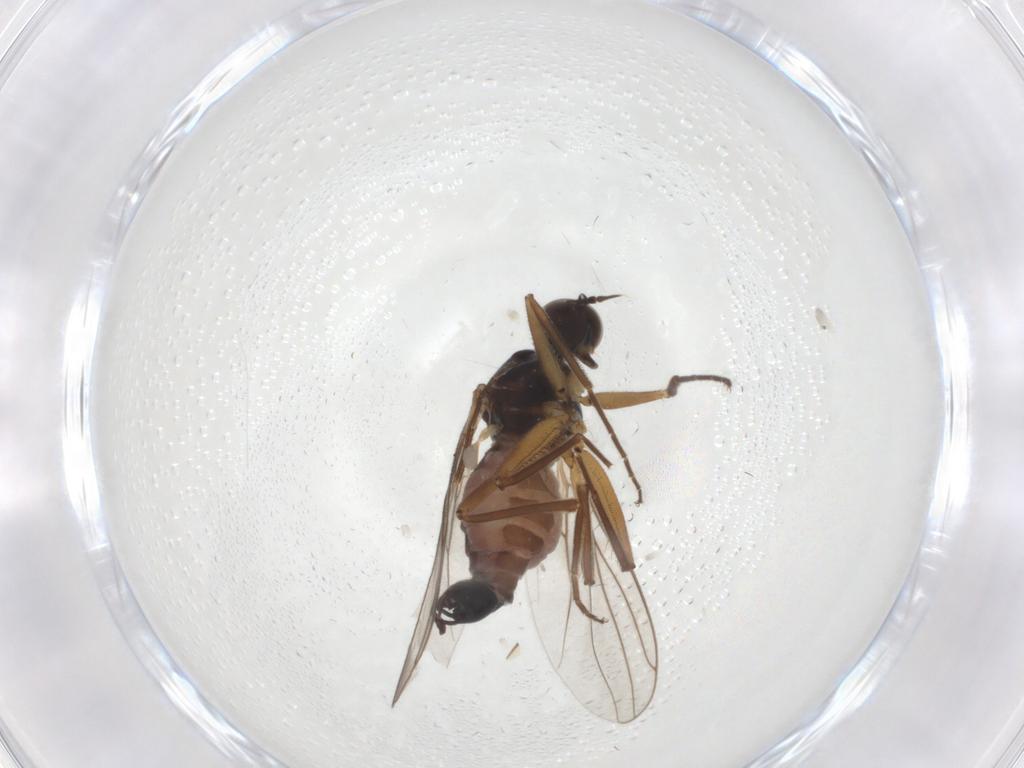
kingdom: Animalia
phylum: Arthropoda
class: Insecta
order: Diptera
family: Hybotidae
